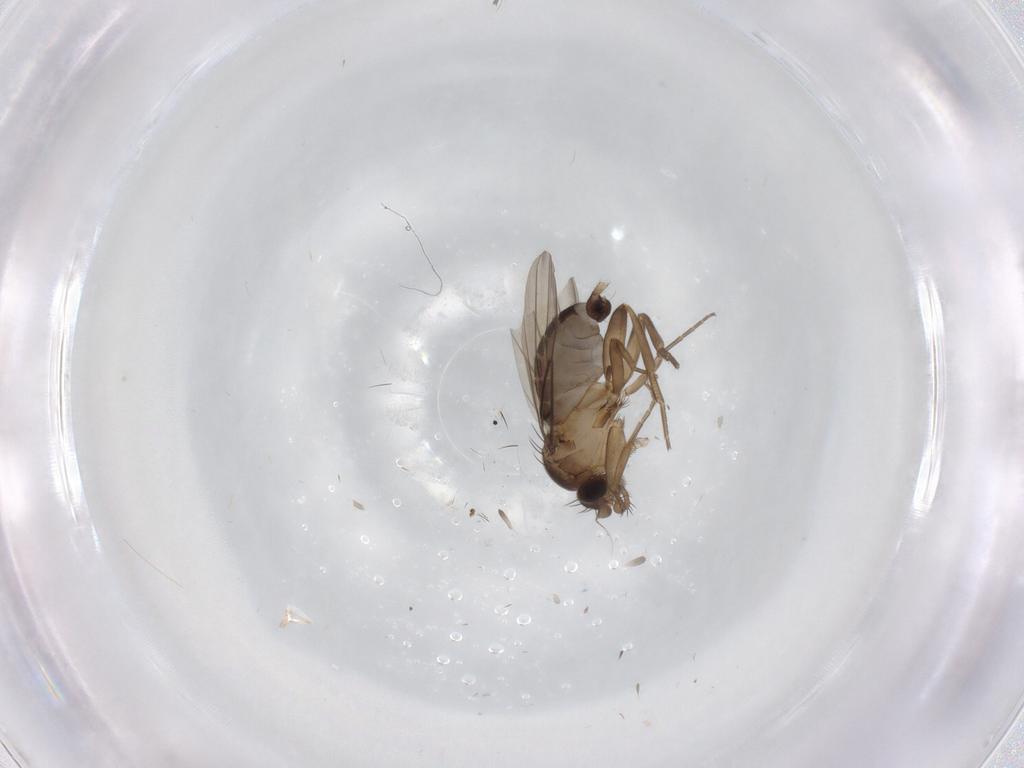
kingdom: Animalia
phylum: Arthropoda
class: Insecta
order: Diptera
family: Phoridae
